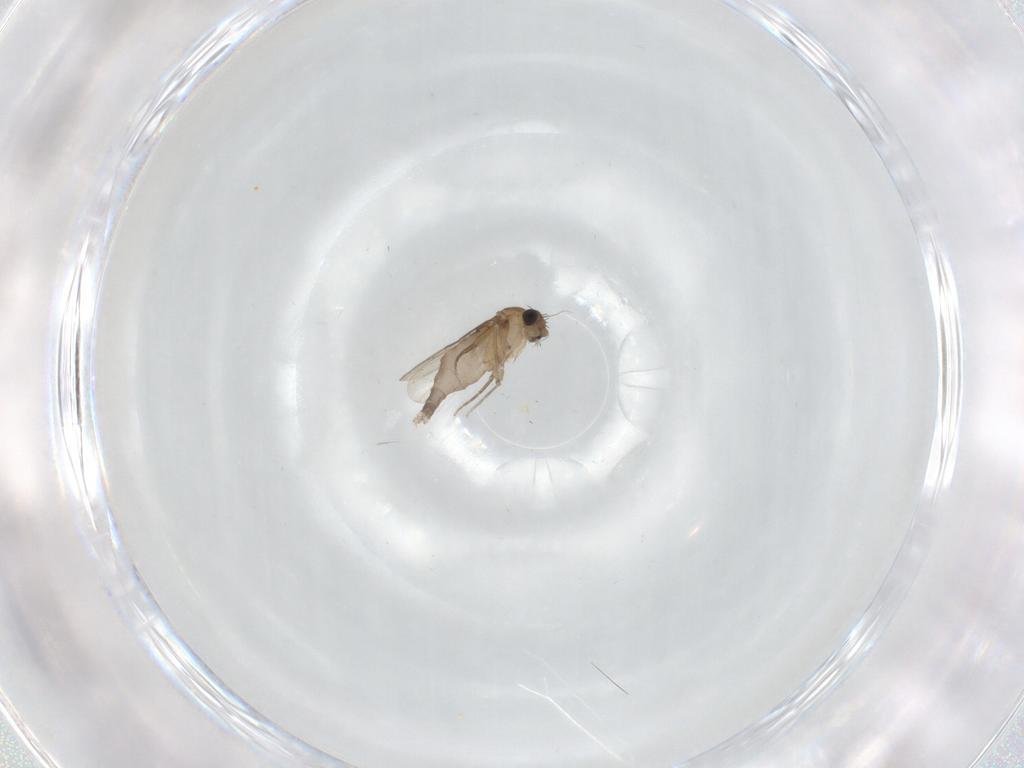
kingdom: Animalia
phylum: Arthropoda
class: Insecta
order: Diptera
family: Phoridae
